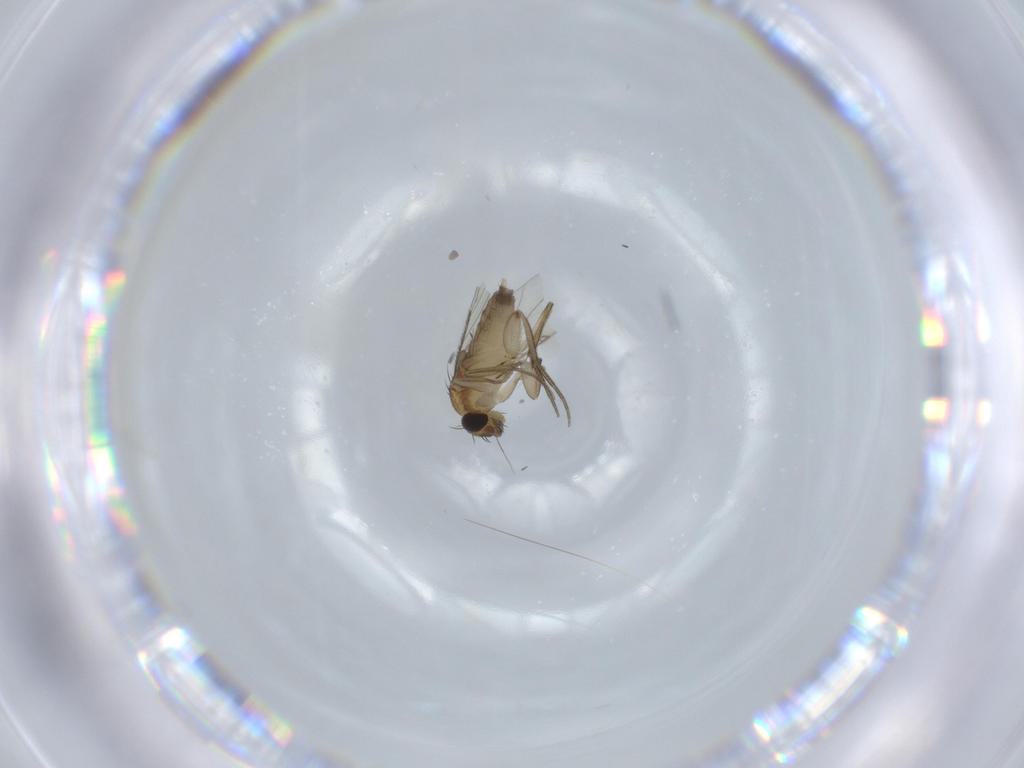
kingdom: Animalia
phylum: Arthropoda
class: Insecta
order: Diptera
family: Phoridae
